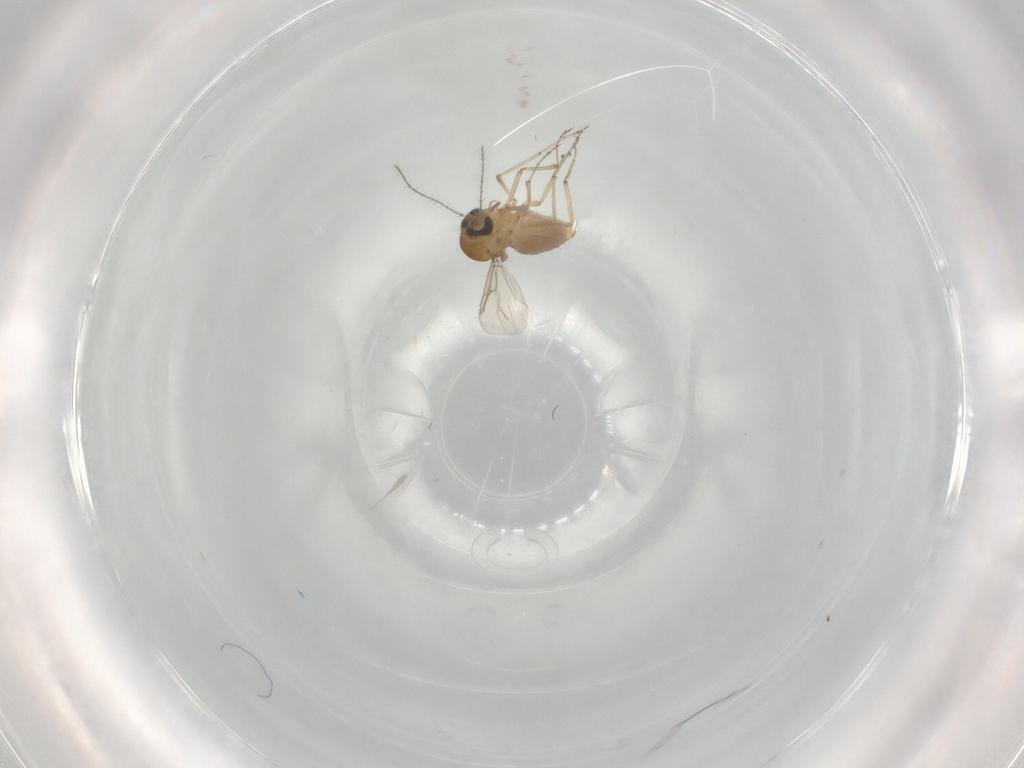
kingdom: Animalia
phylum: Arthropoda
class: Insecta
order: Diptera
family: Ceratopogonidae
